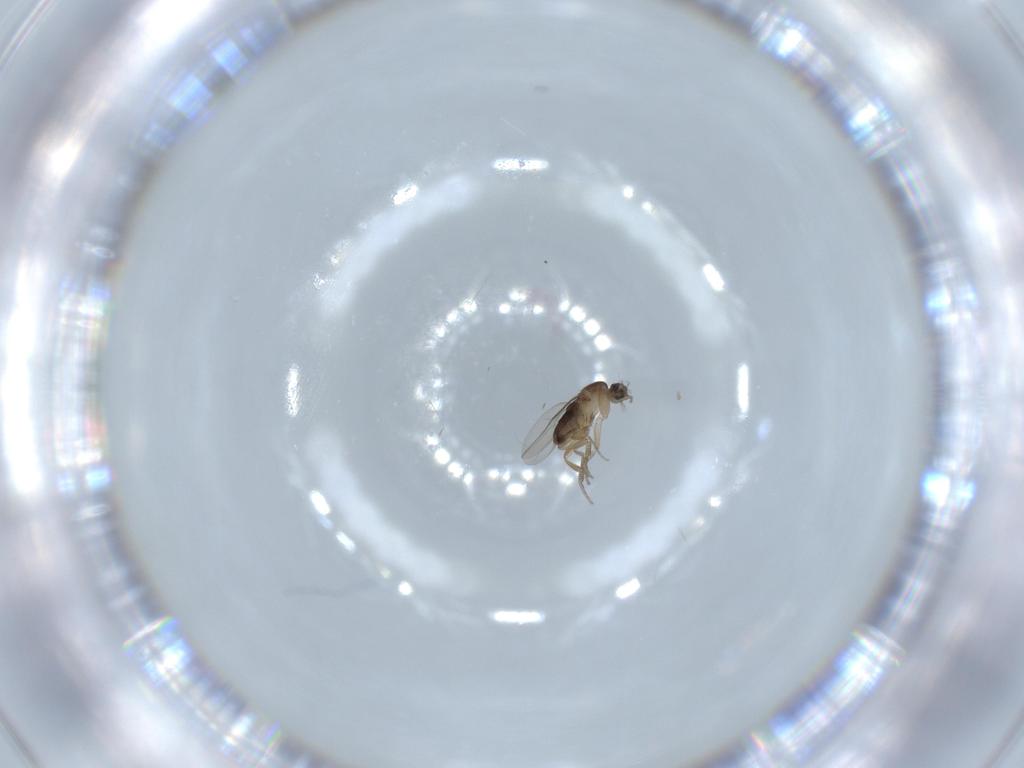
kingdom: Animalia
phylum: Arthropoda
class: Insecta
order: Diptera
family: Phoridae
